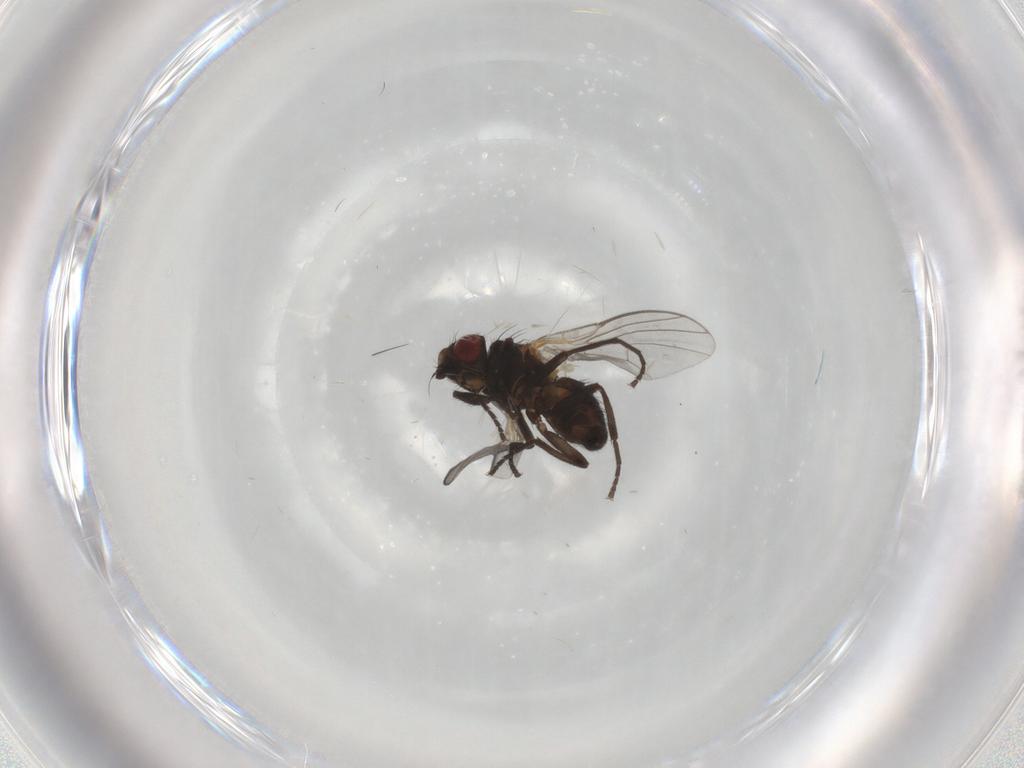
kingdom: Animalia
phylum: Arthropoda
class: Insecta
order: Diptera
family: Agromyzidae
